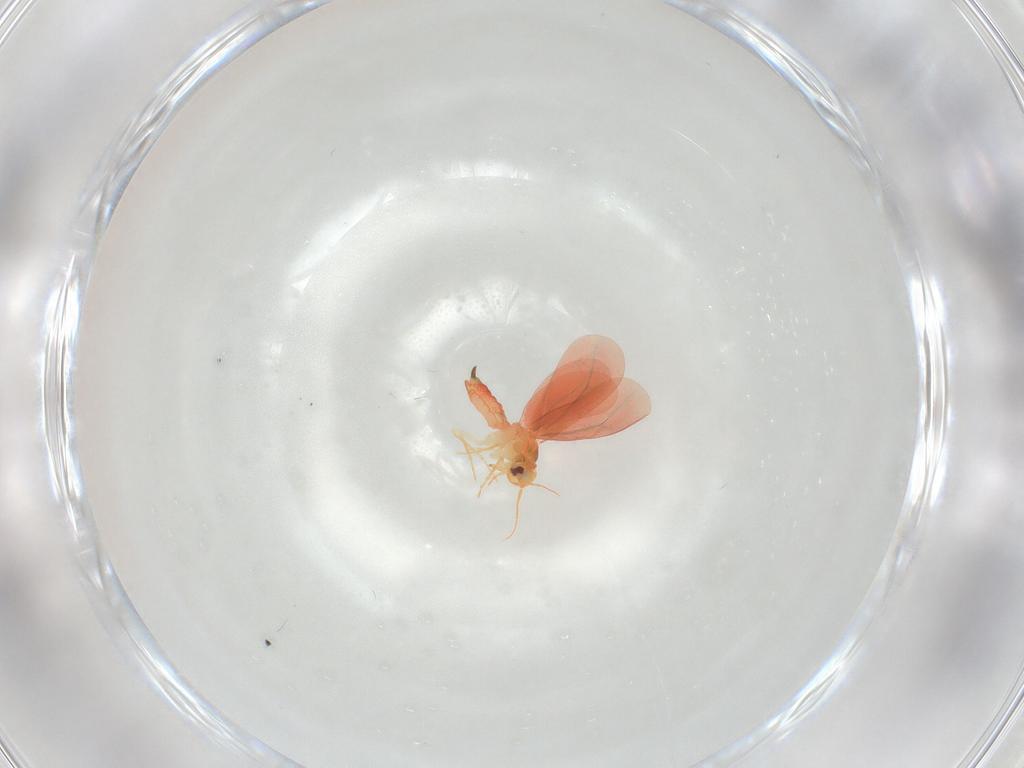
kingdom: Animalia
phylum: Arthropoda
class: Insecta
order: Hemiptera
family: Aleyrodidae
